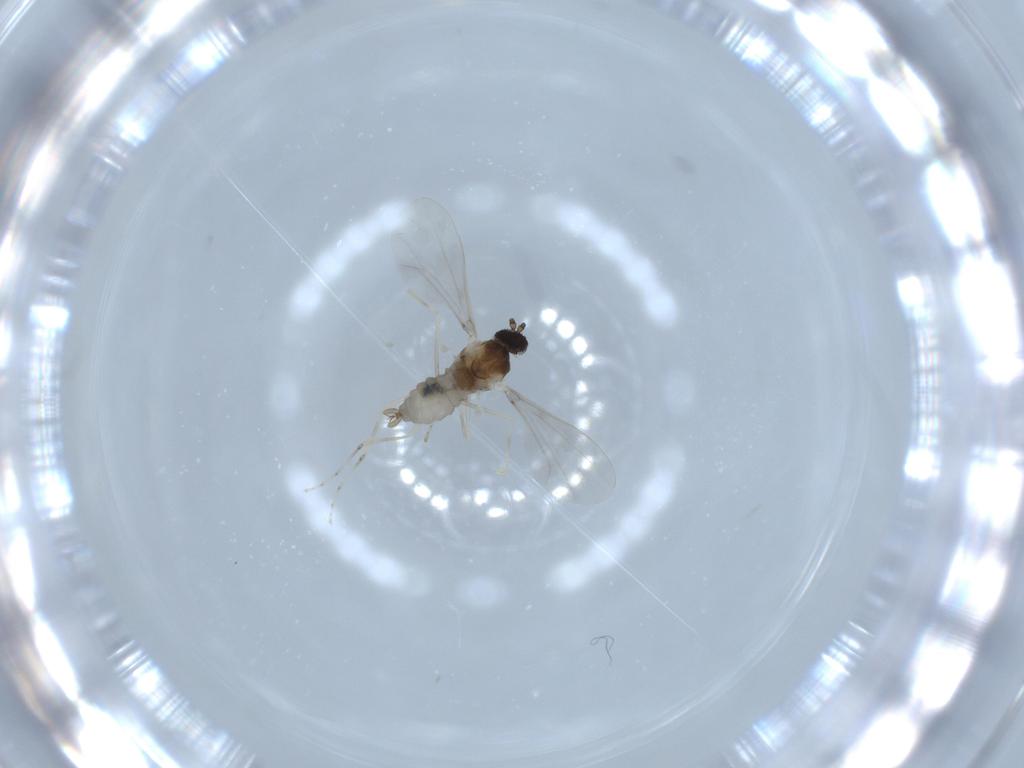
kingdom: Animalia
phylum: Arthropoda
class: Insecta
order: Diptera
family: Cecidomyiidae
